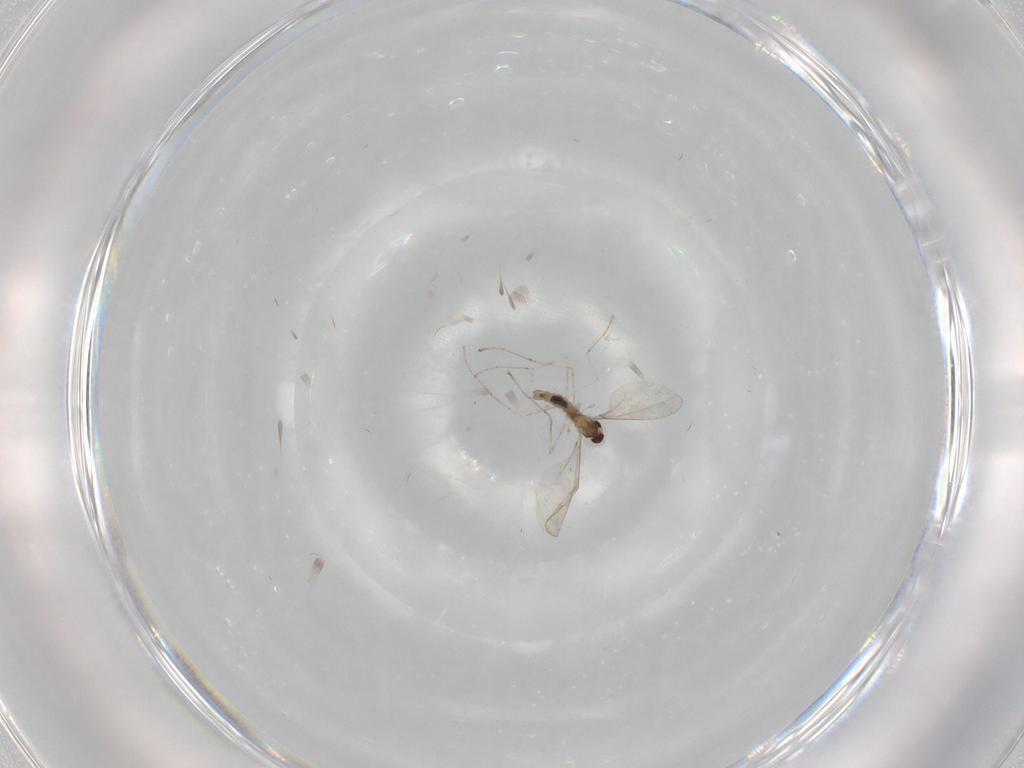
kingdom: Animalia
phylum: Arthropoda
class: Insecta
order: Diptera
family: Cecidomyiidae
